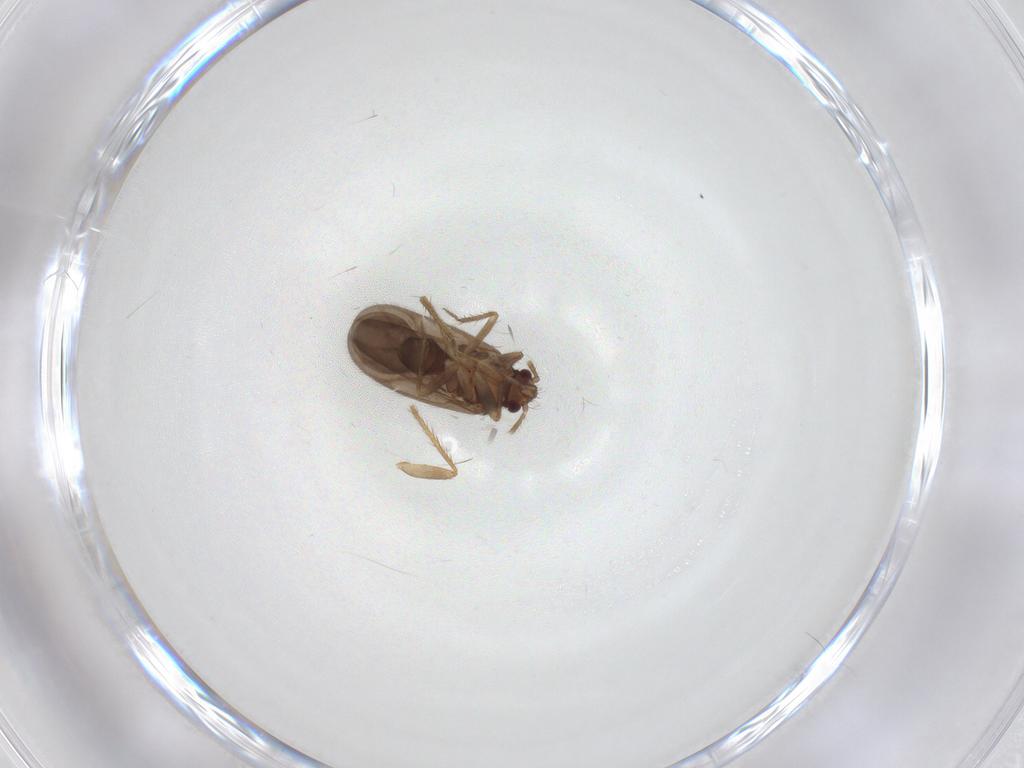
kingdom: Animalia
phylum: Arthropoda
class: Insecta
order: Hemiptera
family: Ceratocombidae
